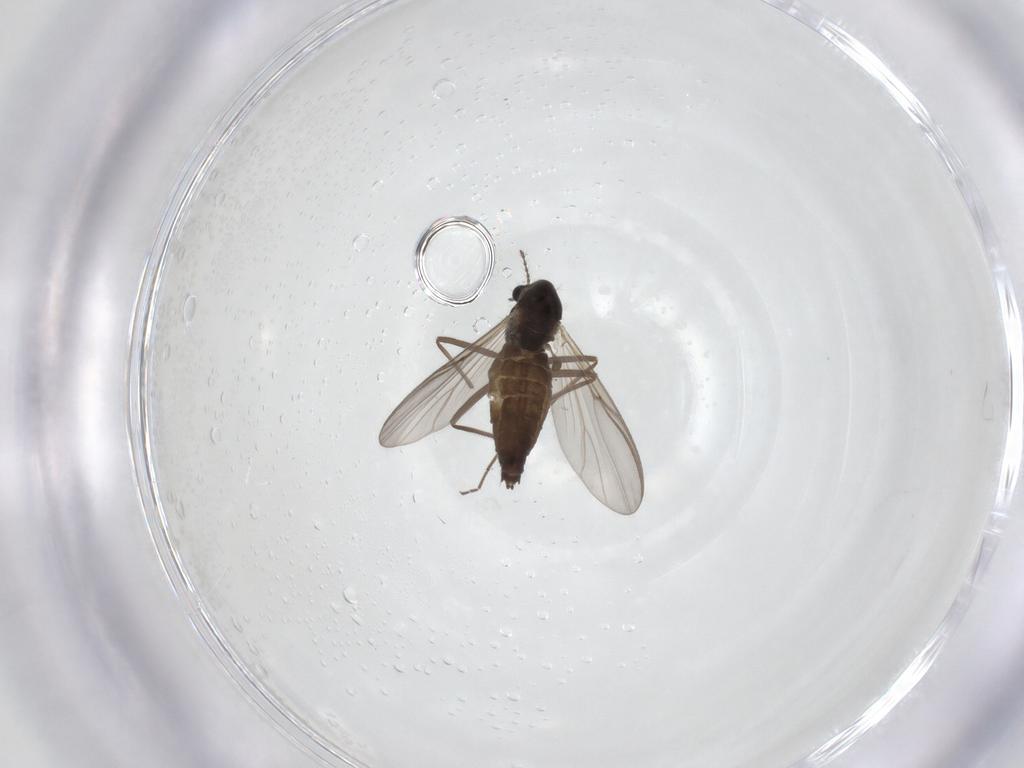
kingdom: Animalia
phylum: Arthropoda
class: Insecta
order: Diptera
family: Chironomidae
